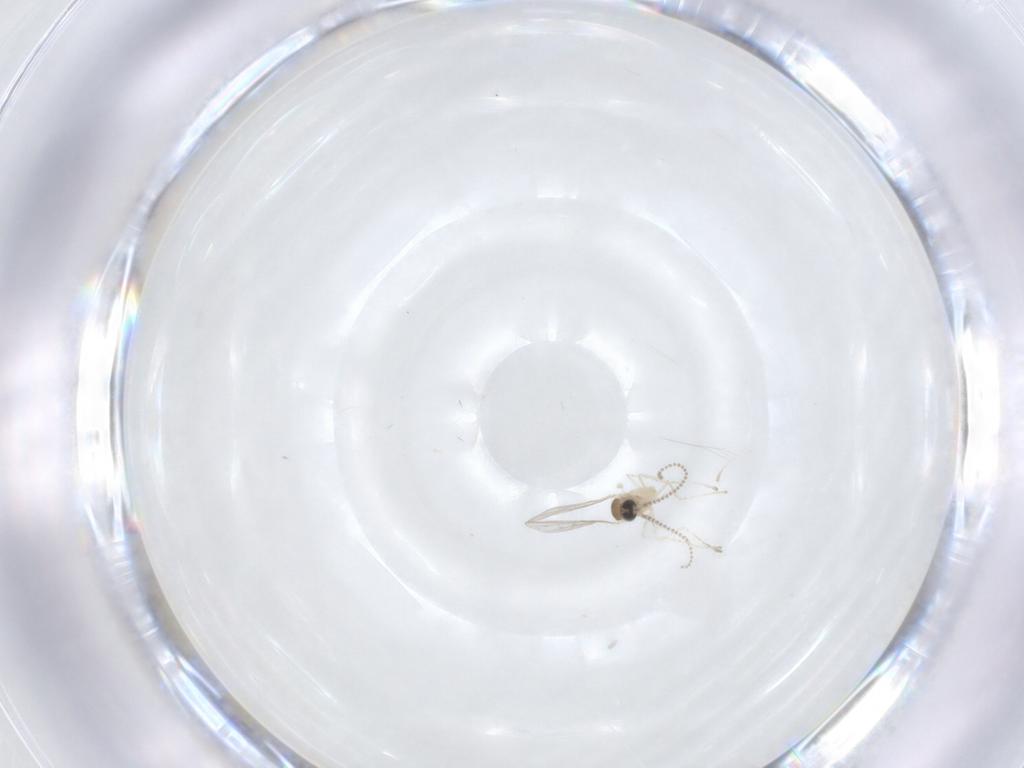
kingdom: Animalia
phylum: Arthropoda
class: Insecta
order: Diptera
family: Cecidomyiidae
